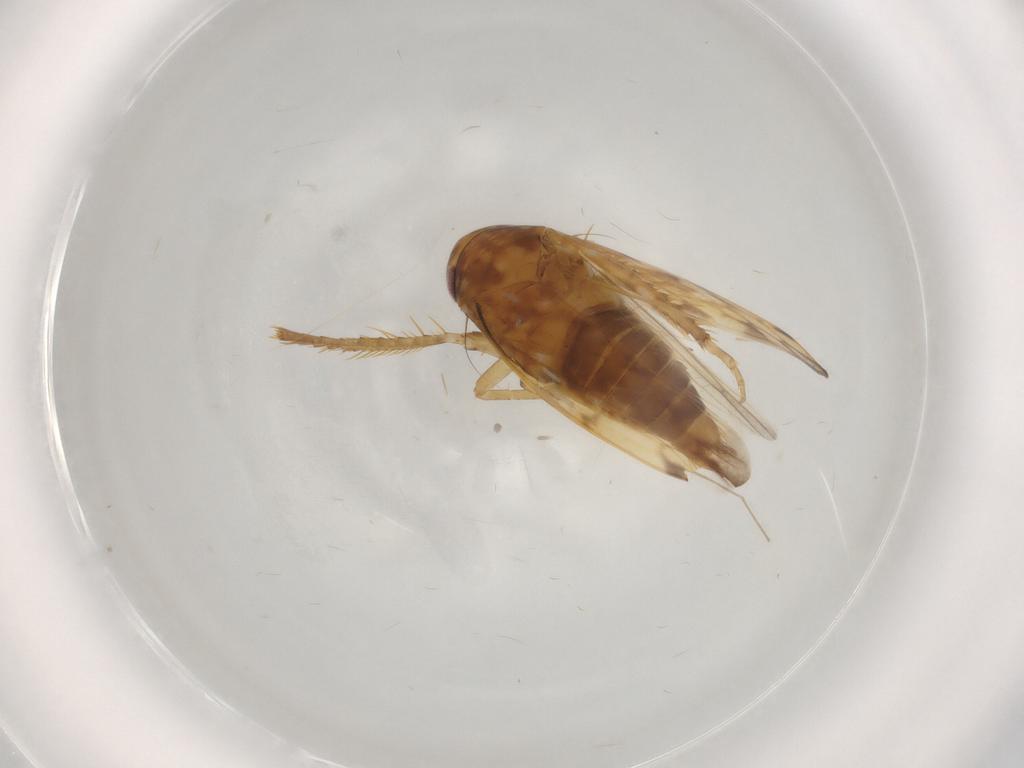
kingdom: Animalia
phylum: Arthropoda
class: Insecta
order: Hemiptera
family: Cicadellidae
